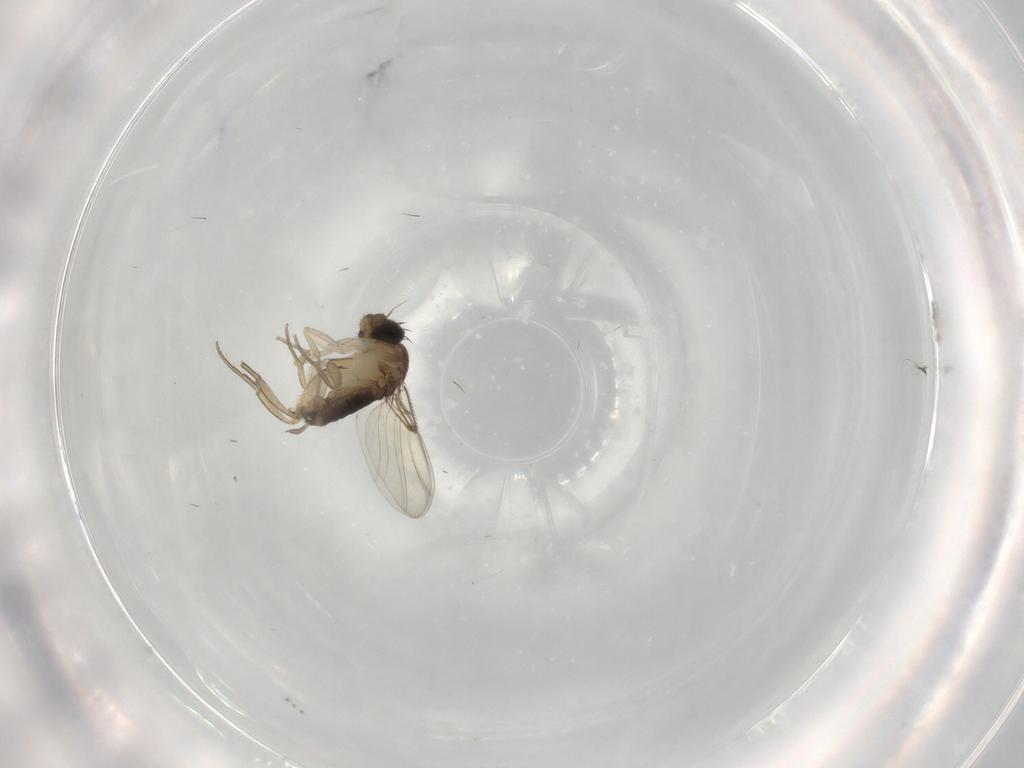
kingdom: Animalia
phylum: Arthropoda
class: Insecta
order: Diptera
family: Cecidomyiidae
